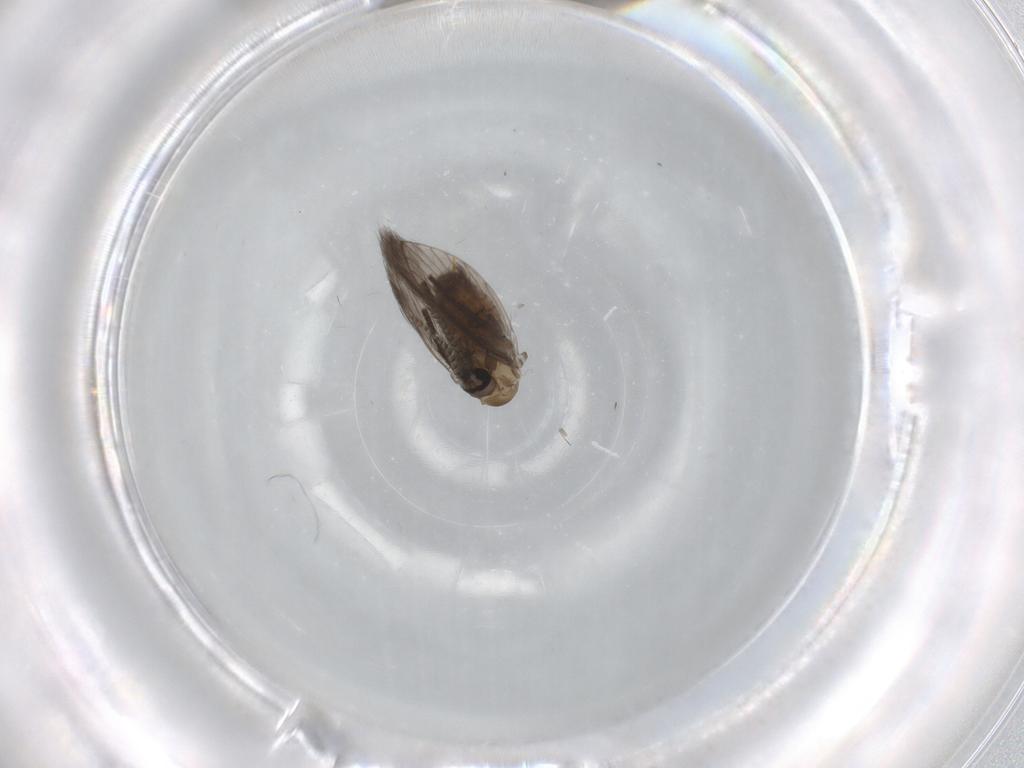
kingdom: Animalia
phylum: Arthropoda
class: Insecta
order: Diptera
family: Psychodidae
